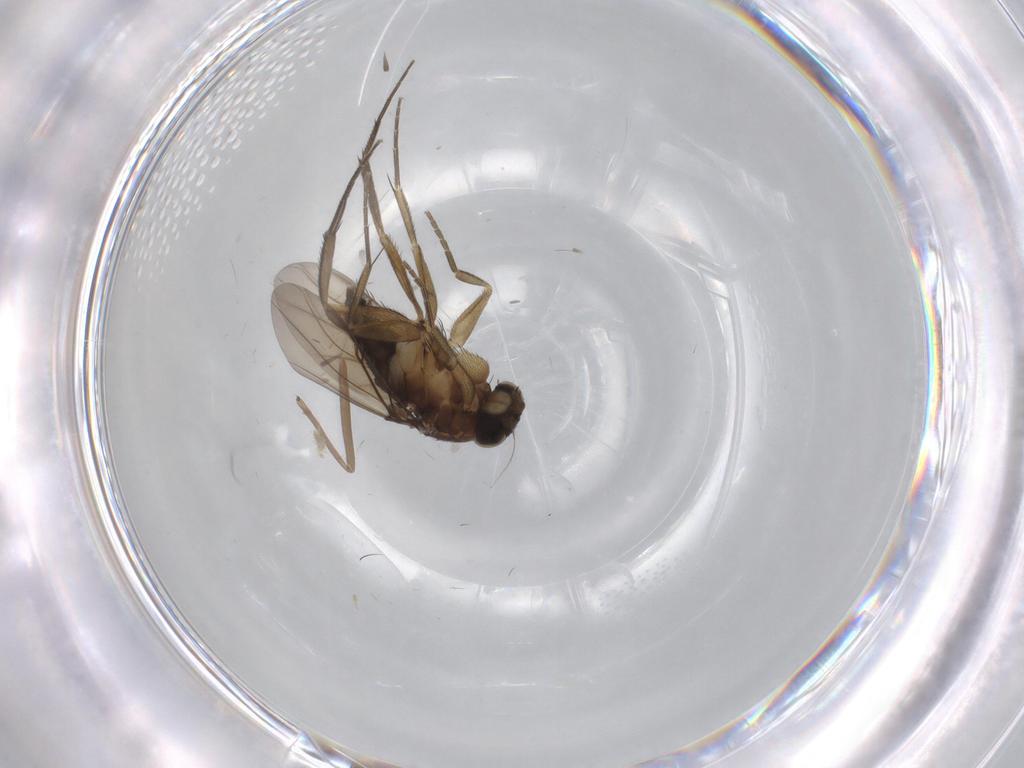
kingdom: Animalia
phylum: Arthropoda
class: Insecta
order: Diptera
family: Phoridae
